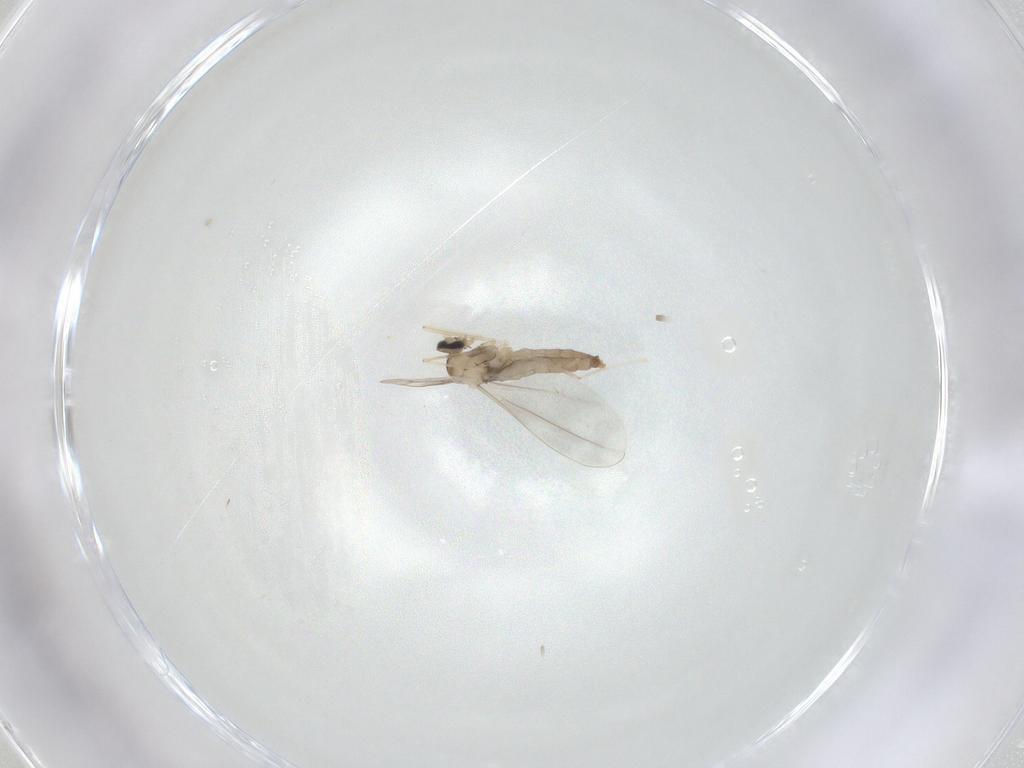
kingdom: Animalia
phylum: Arthropoda
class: Insecta
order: Diptera
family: Cecidomyiidae
